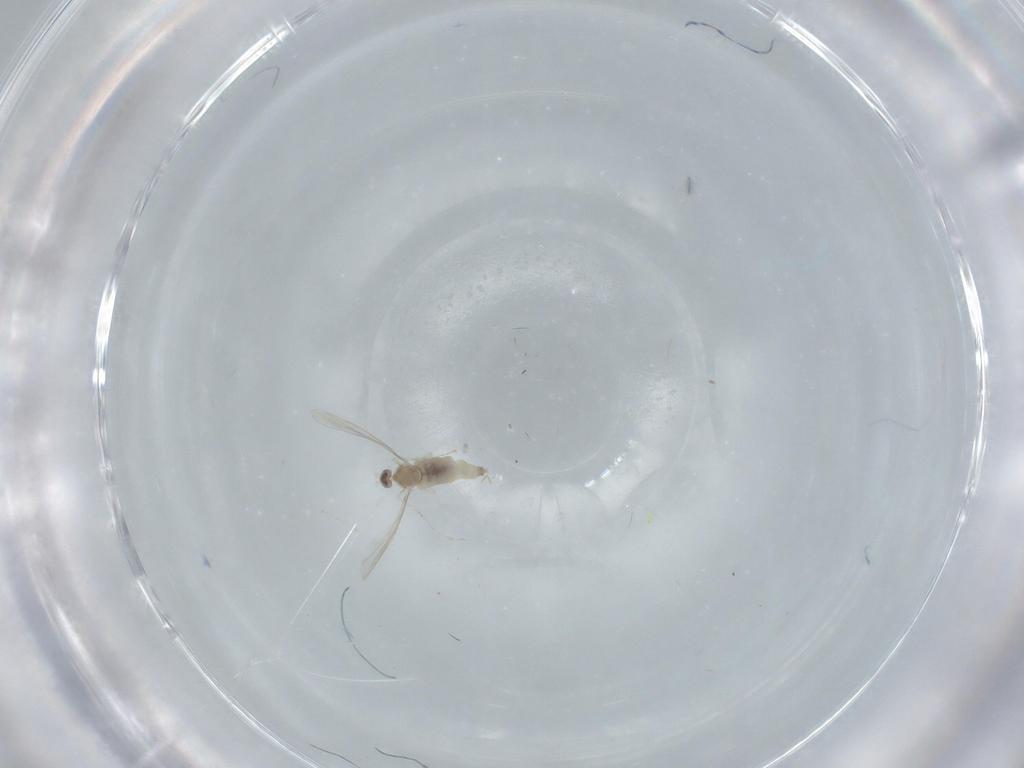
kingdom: Animalia
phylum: Arthropoda
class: Insecta
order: Diptera
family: Cecidomyiidae
